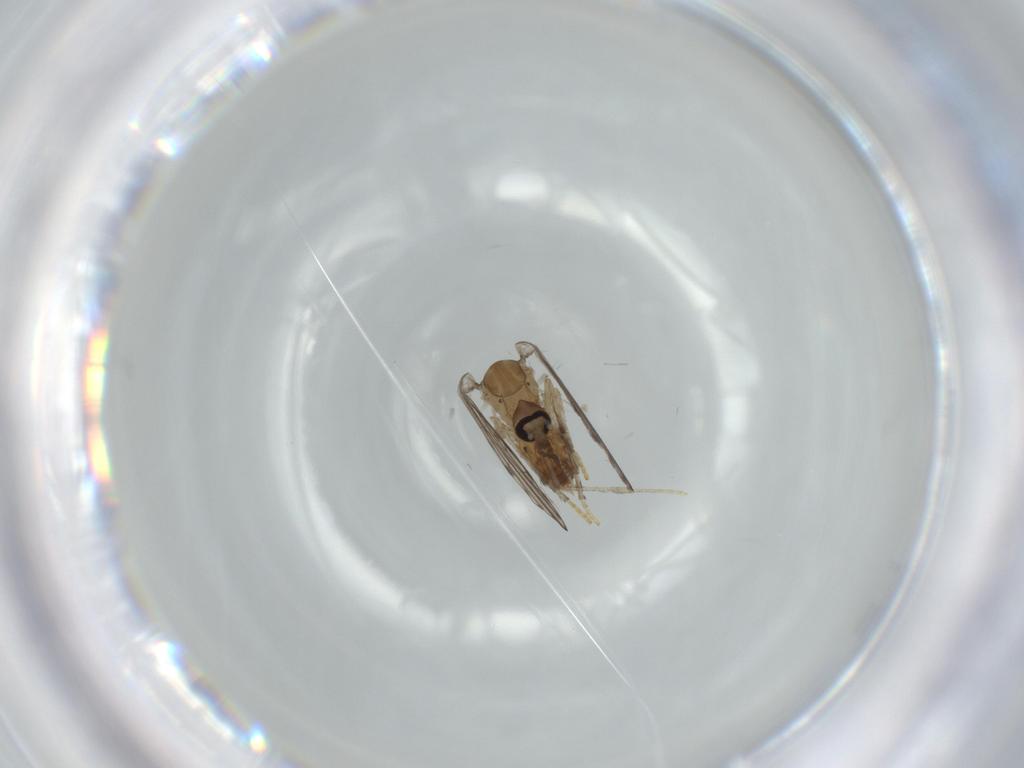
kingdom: Animalia
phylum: Arthropoda
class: Insecta
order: Diptera
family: Psychodidae
